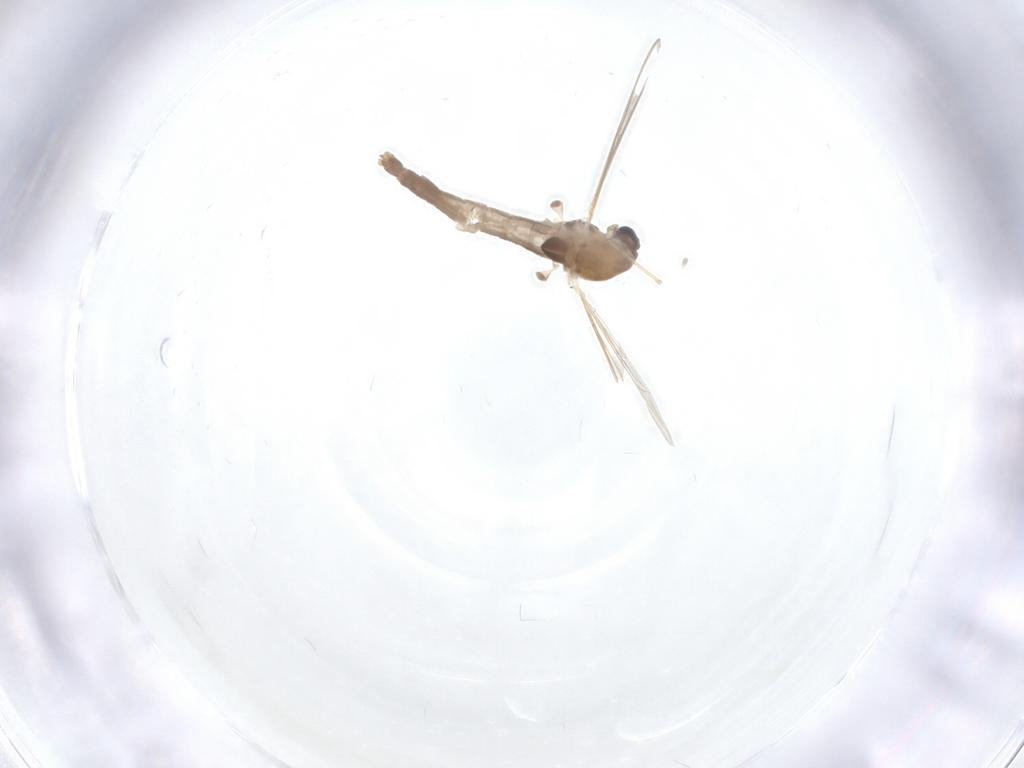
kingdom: Animalia
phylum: Arthropoda
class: Insecta
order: Diptera
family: Chironomidae
